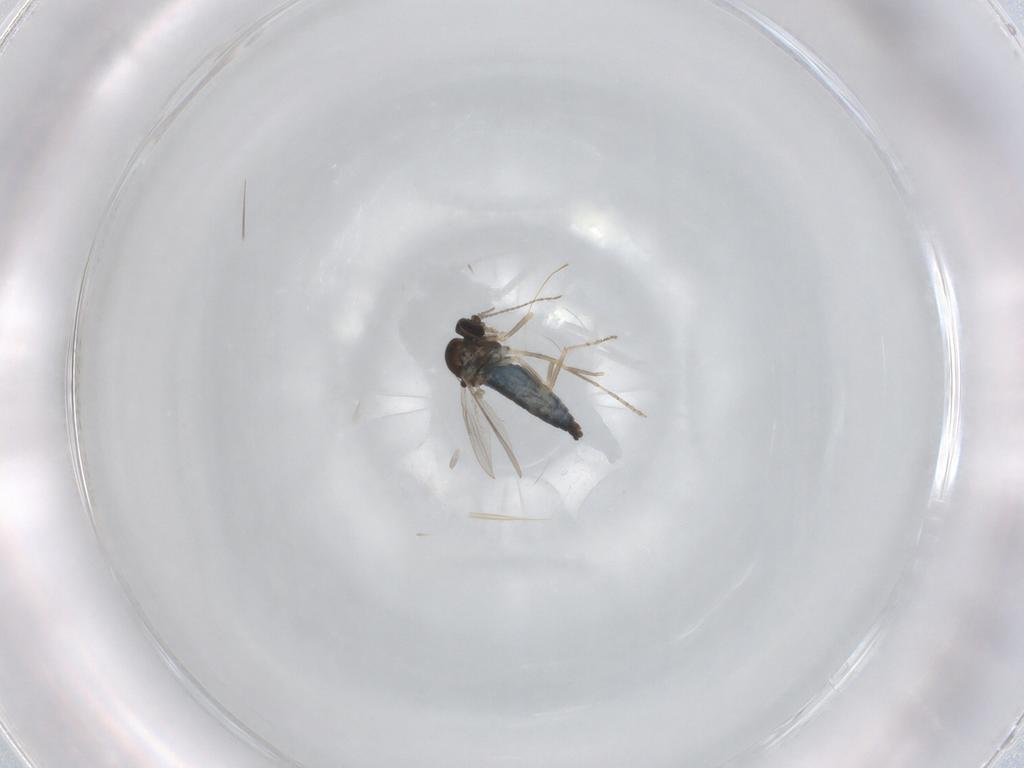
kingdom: Animalia
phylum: Arthropoda
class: Insecta
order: Diptera
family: Ceratopogonidae
